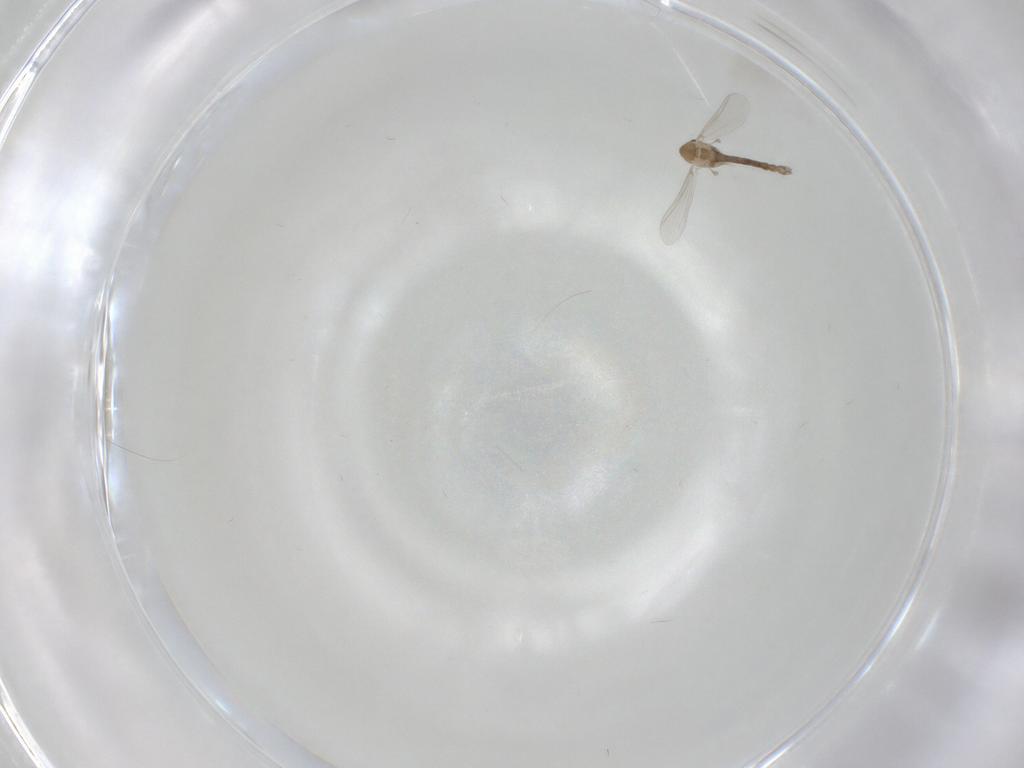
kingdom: Animalia
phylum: Arthropoda
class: Insecta
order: Diptera
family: Chironomidae
